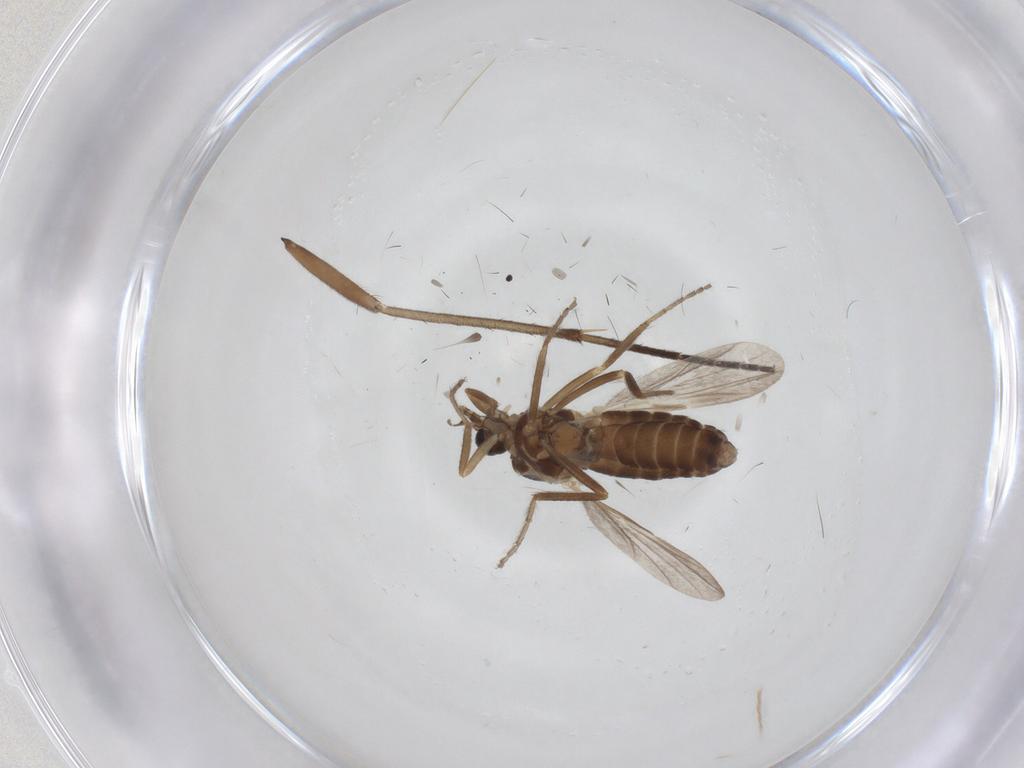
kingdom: Animalia
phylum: Arthropoda
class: Insecta
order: Diptera
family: Ceratopogonidae
